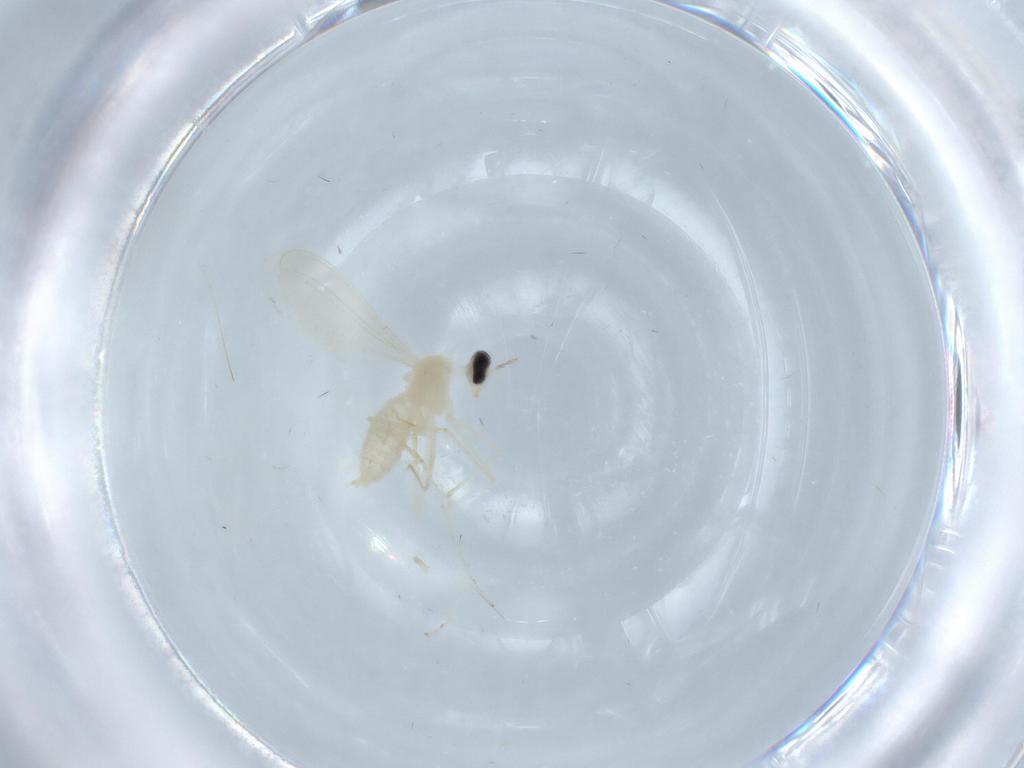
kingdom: Animalia
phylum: Arthropoda
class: Insecta
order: Diptera
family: Cecidomyiidae
